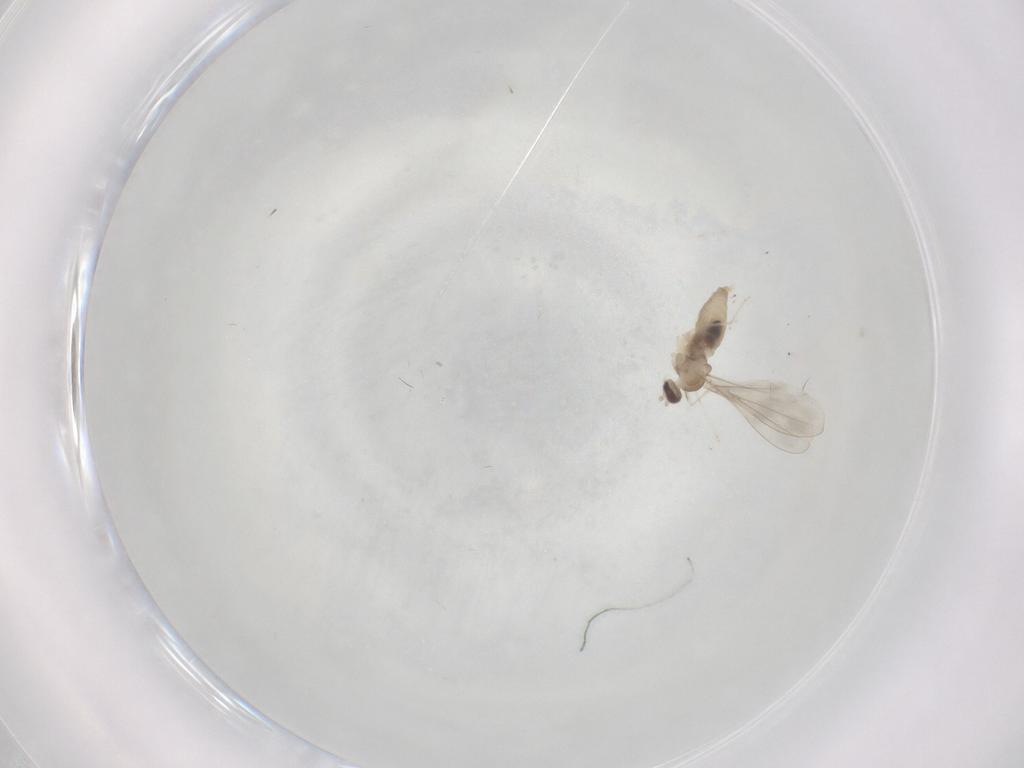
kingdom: Animalia
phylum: Arthropoda
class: Insecta
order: Diptera
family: Cecidomyiidae
